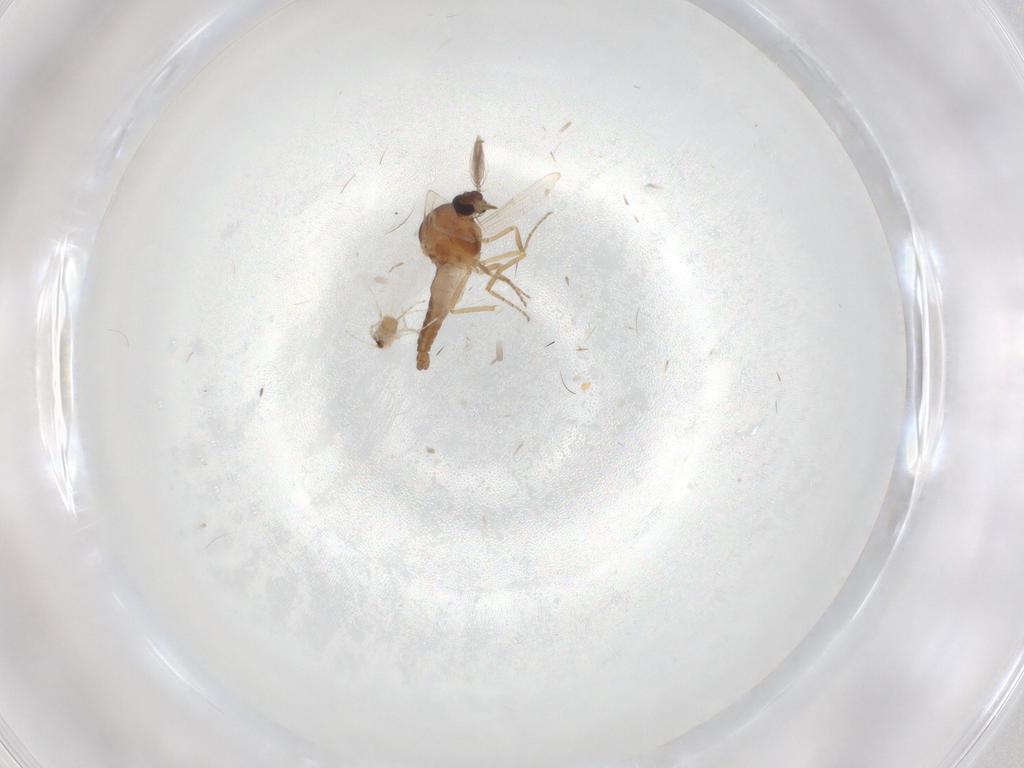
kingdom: Animalia
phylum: Arthropoda
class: Insecta
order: Diptera
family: Cecidomyiidae
